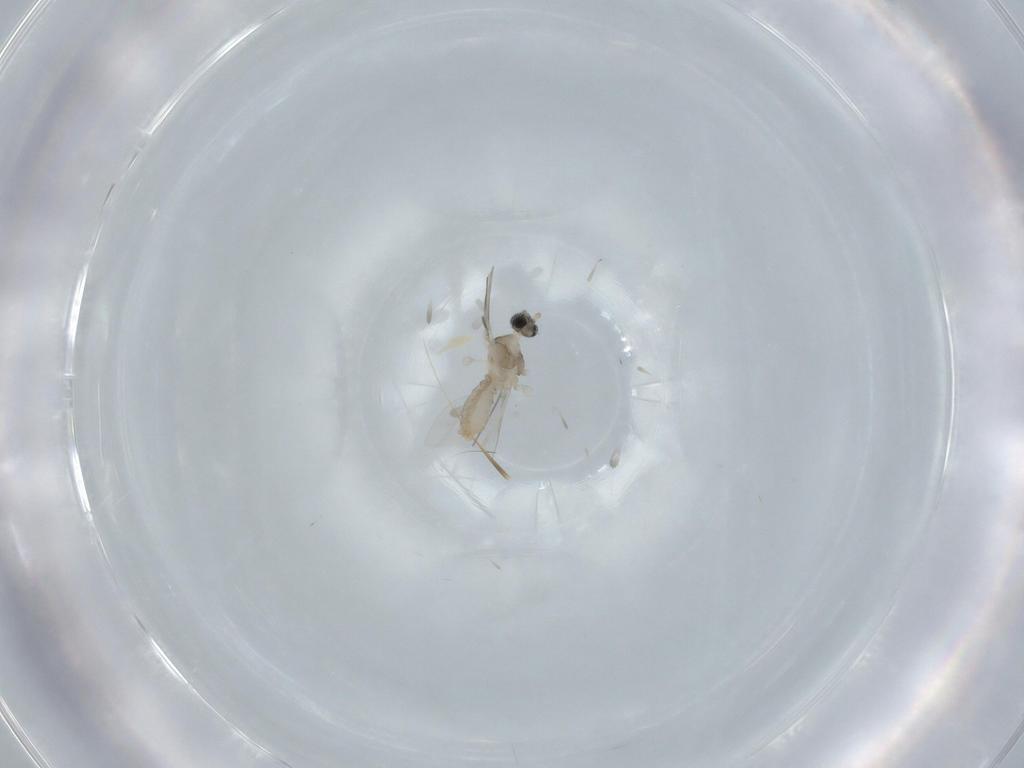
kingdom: Animalia
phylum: Arthropoda
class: Insecta
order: Diptera
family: Cecidomyiidae
